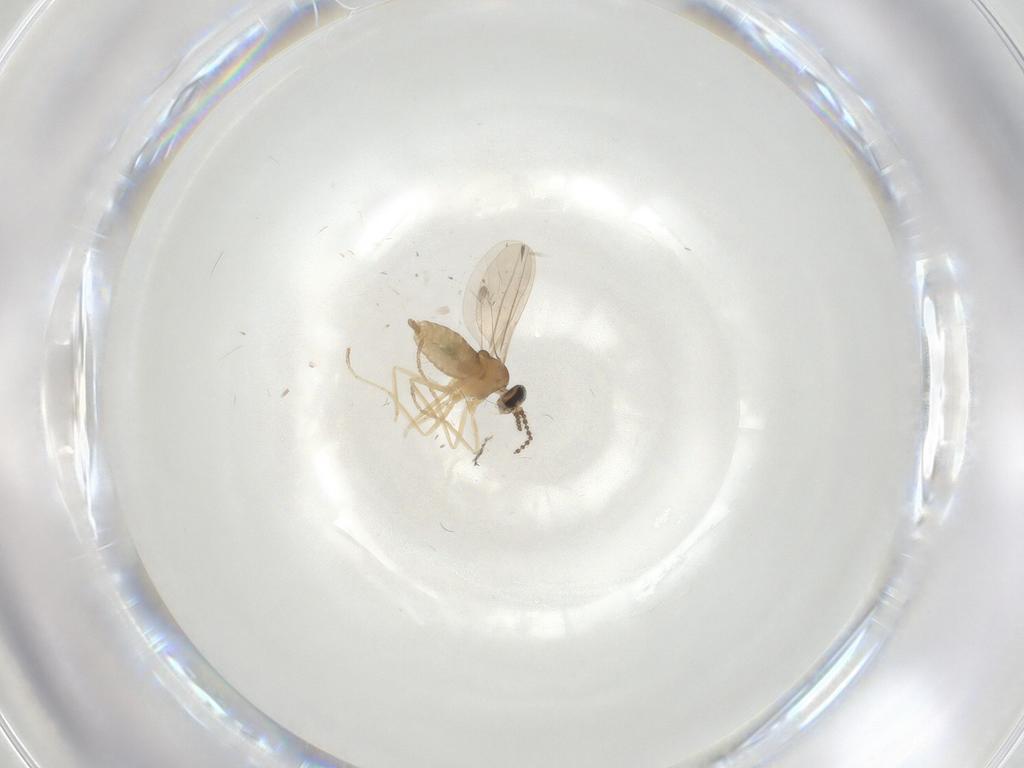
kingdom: Animalia
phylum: Arthropoda
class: Insecta
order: Diptera
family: Cecidomyiidae
